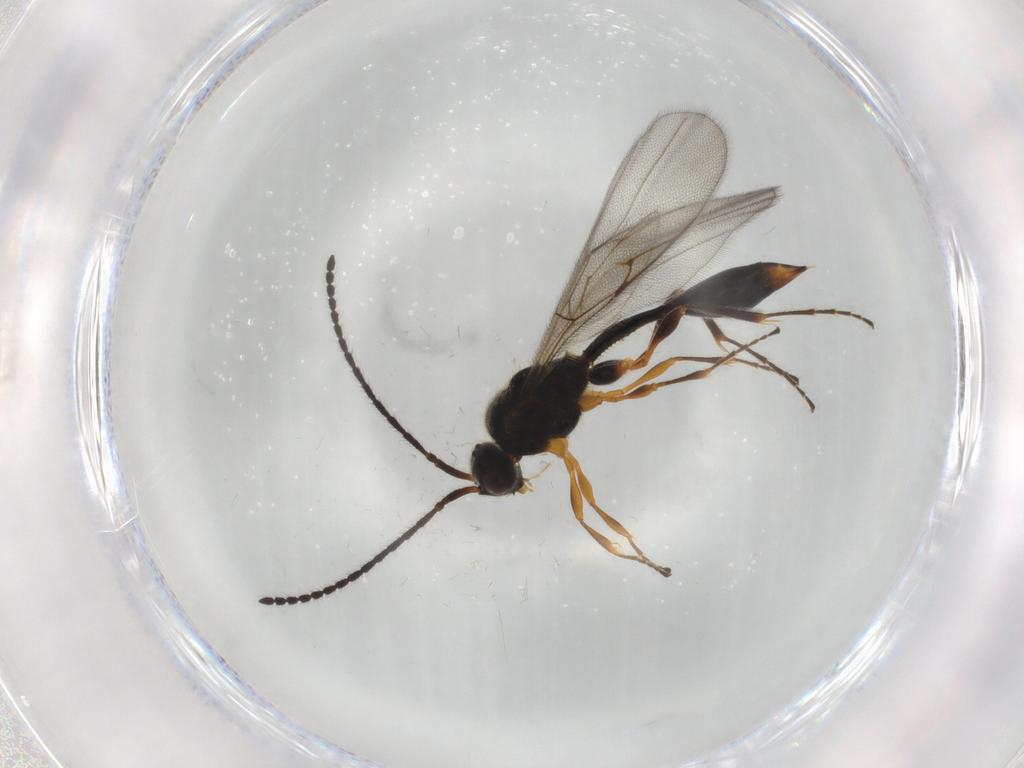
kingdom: Animalia
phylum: Arthropoda
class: Insecta
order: Hymenoptera
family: Diapriidae
